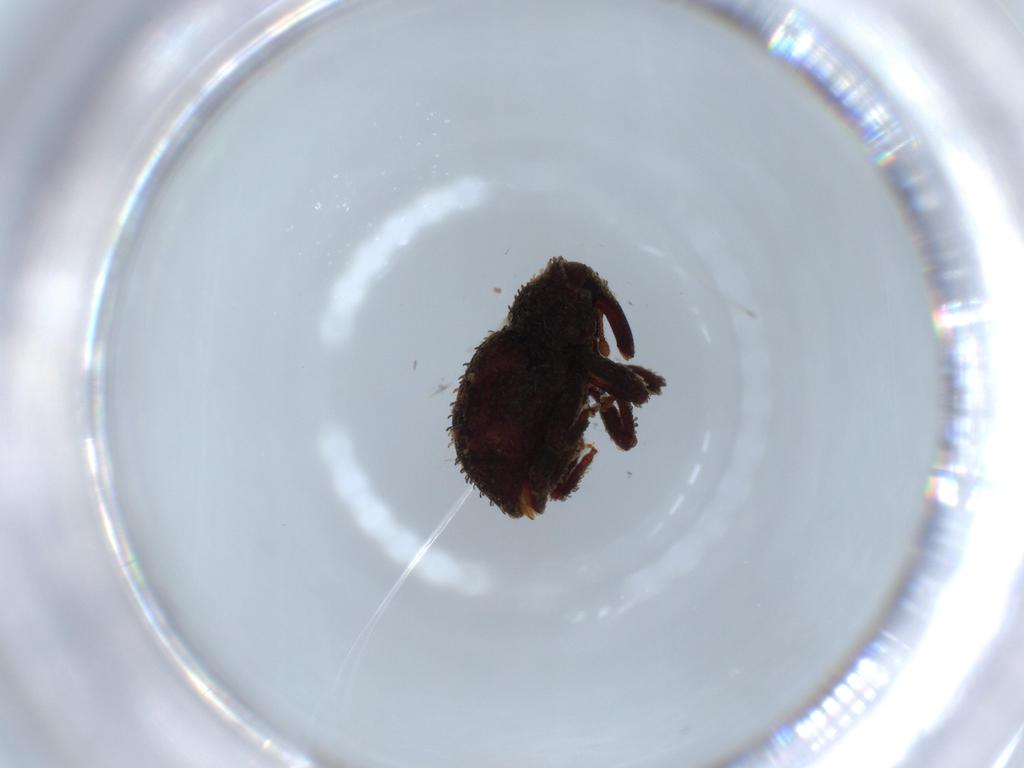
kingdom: Animalia
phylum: Arthropoda
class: Insecta
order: Coleoptera
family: Curculionidae
